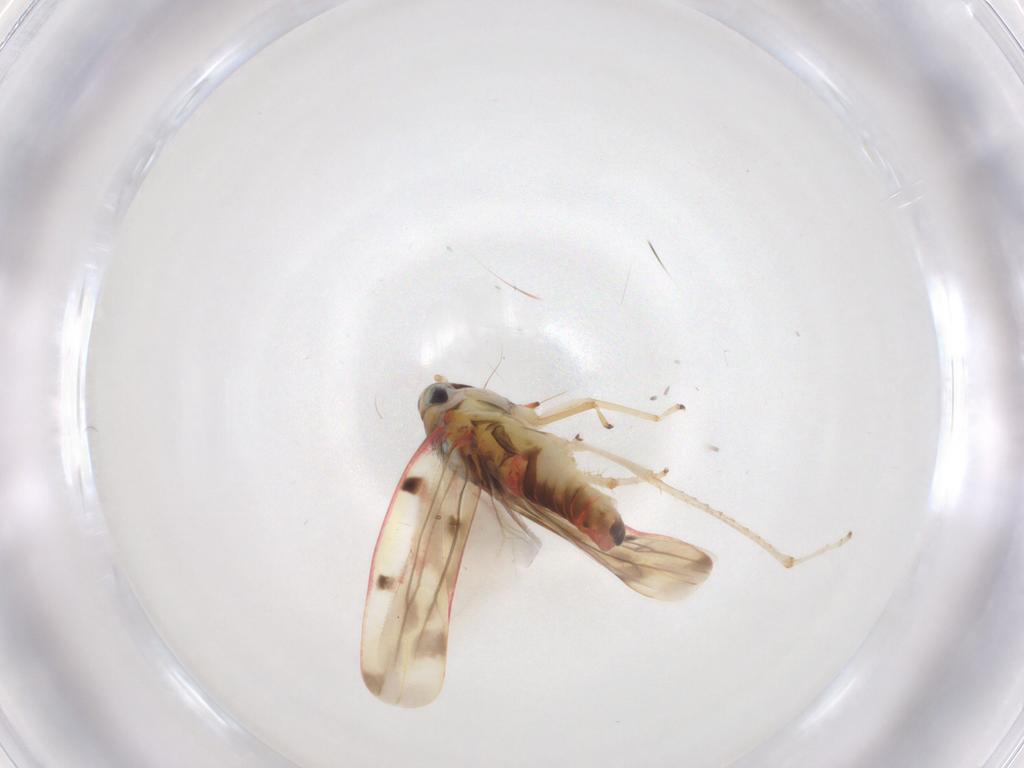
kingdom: Animalia
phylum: Arthropoda
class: Insecta
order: Hemiptera
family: Cicadellidae
